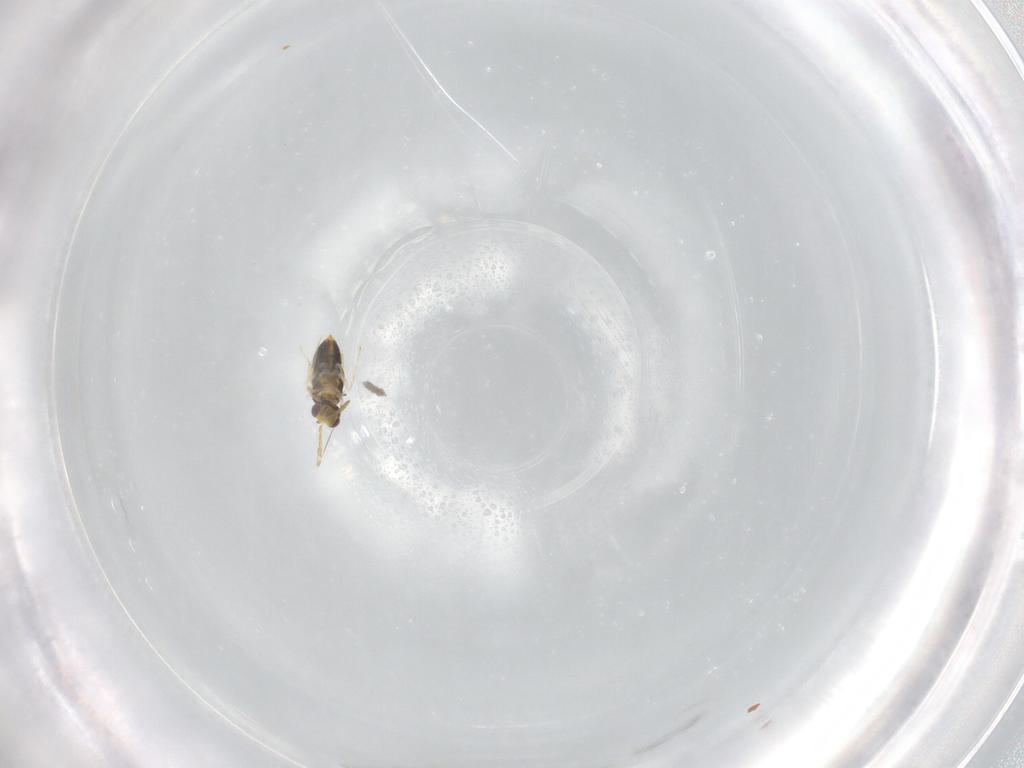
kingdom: Animalia
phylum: Arthropoda
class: Insecta
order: Hymenoptera
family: Aphelinidae
